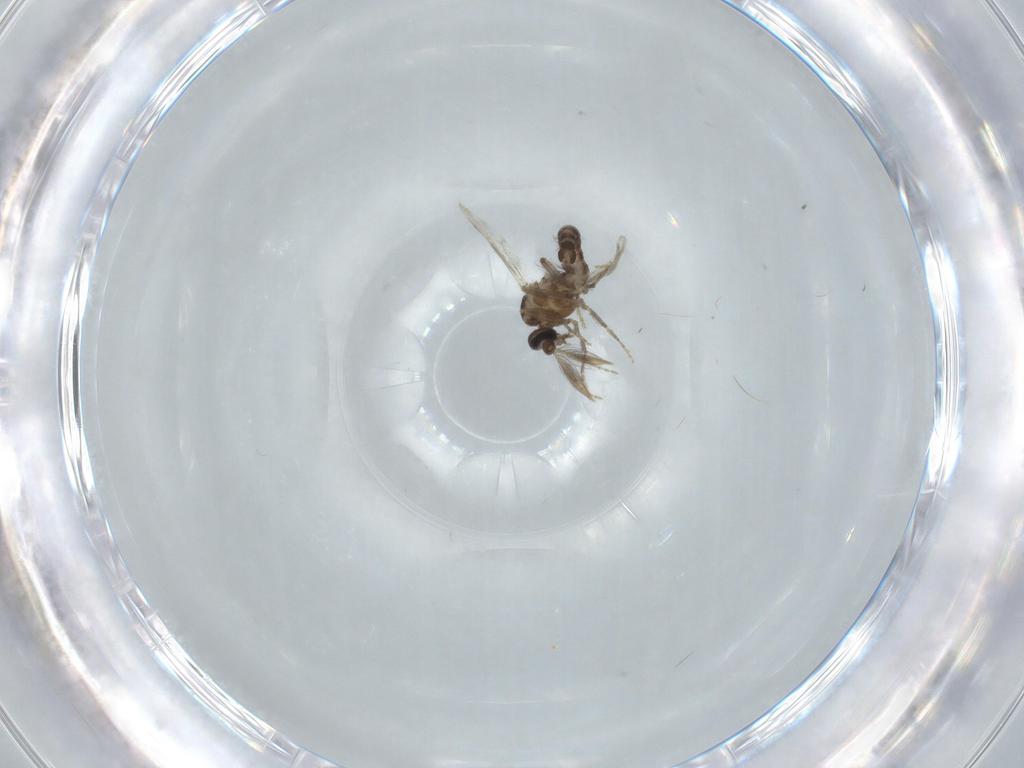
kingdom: Animalia
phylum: Arthropoda
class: Insecta
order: Diptera
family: Ceratopogonidae
